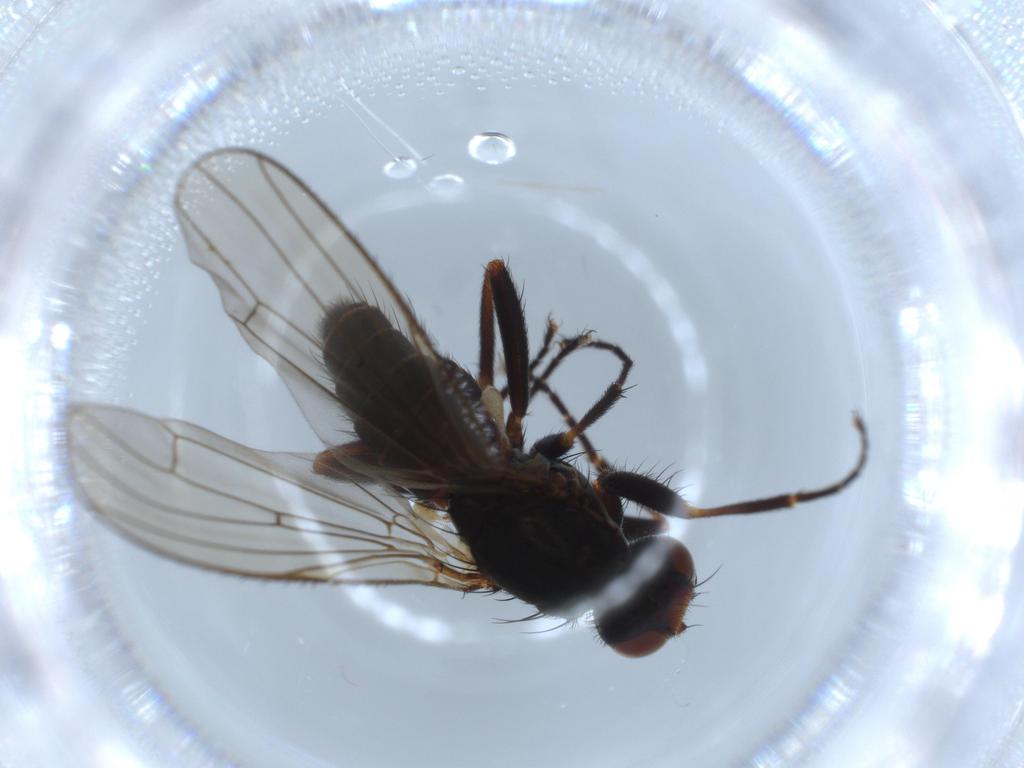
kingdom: Animalia
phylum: Arthropoda
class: Insecta
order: Diptera
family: Heleomyzidae
